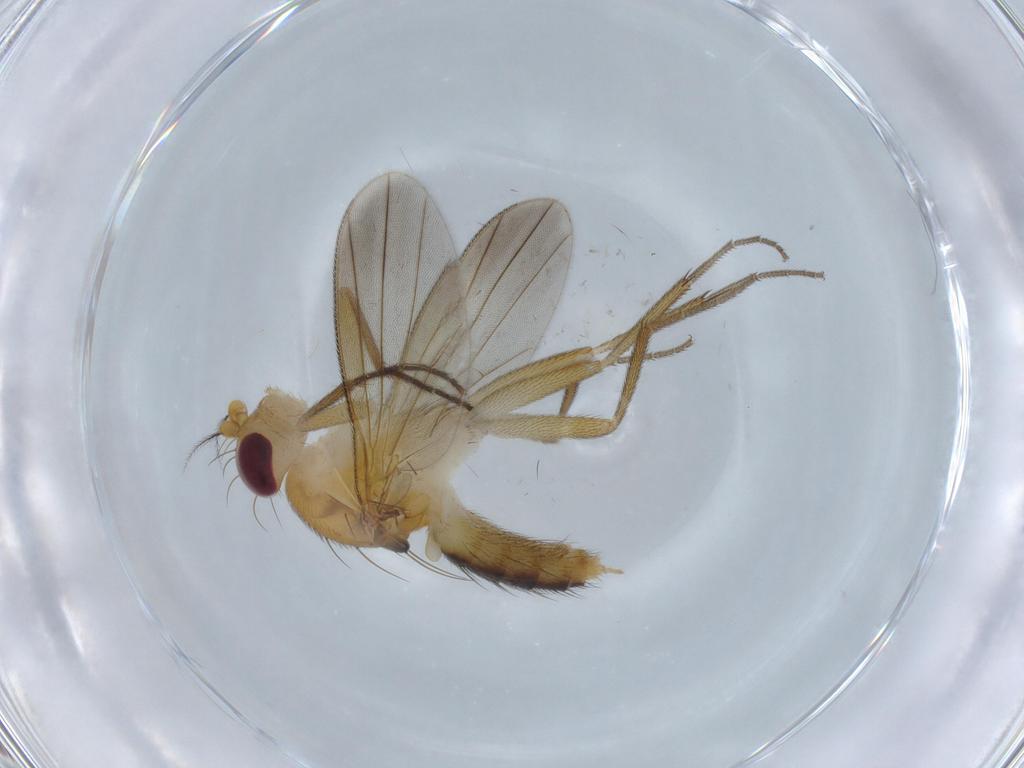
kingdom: Animalia
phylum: Arthropoda
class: Insecta
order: Diptera
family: Clusiidae
